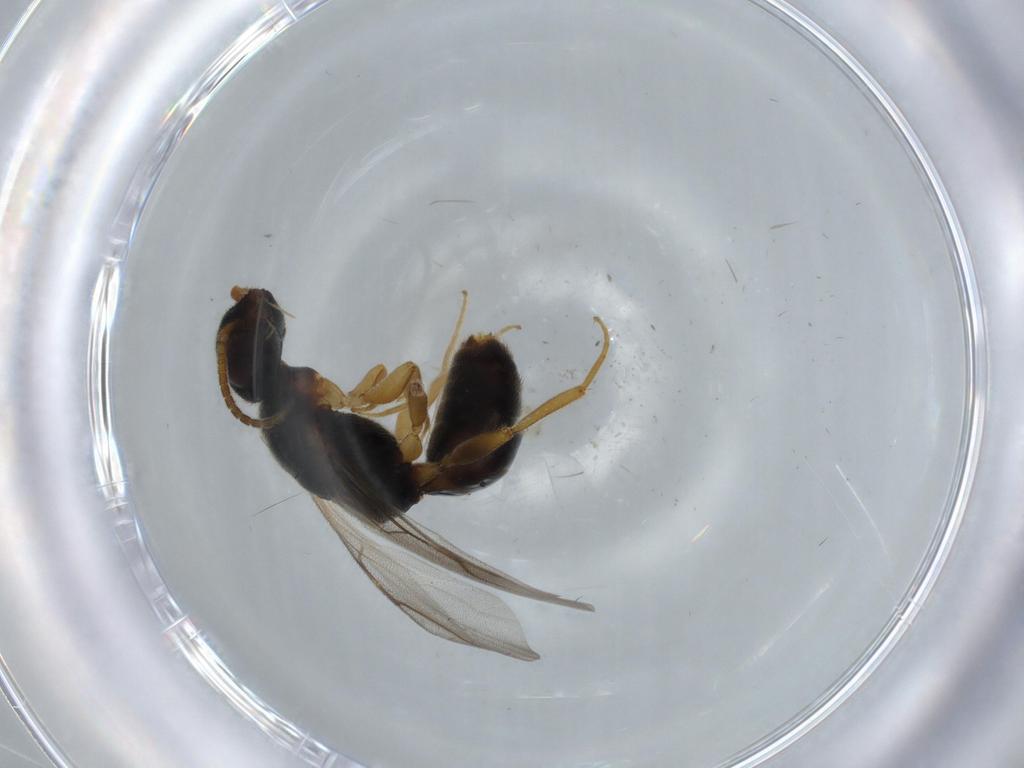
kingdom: Animalia
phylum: Arthropoda
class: Insecta
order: Hymenoptera
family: Bethylidae
